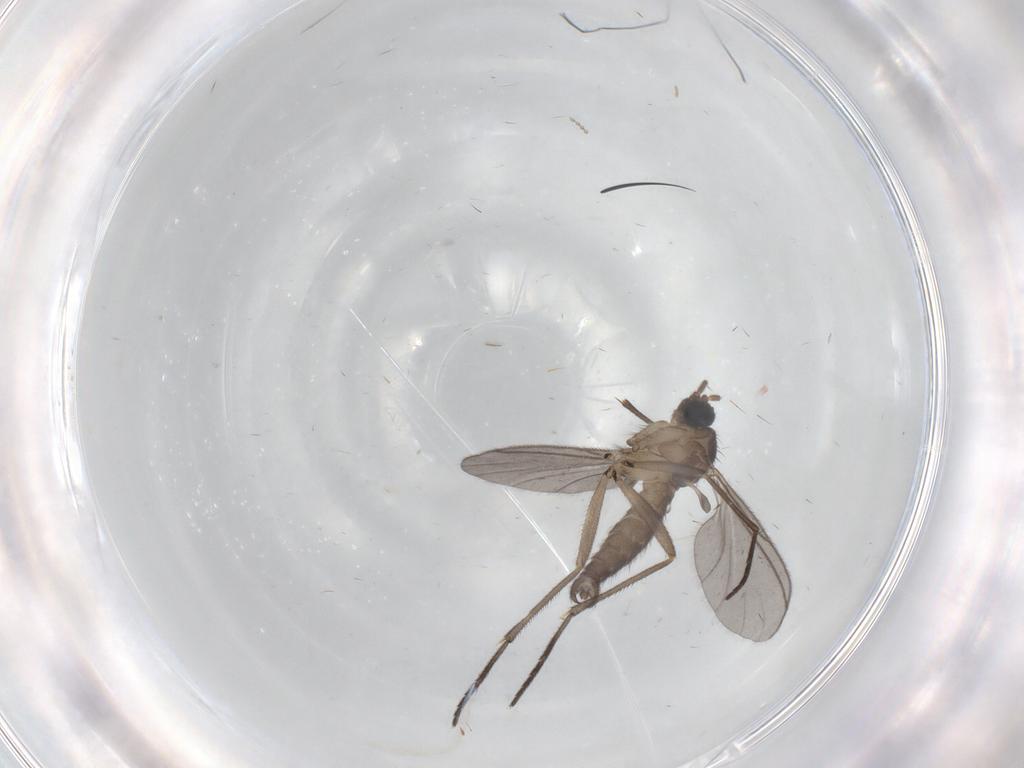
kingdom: Animalia
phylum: Arthropoda
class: Insecta
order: Diptera
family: Sciaridae
